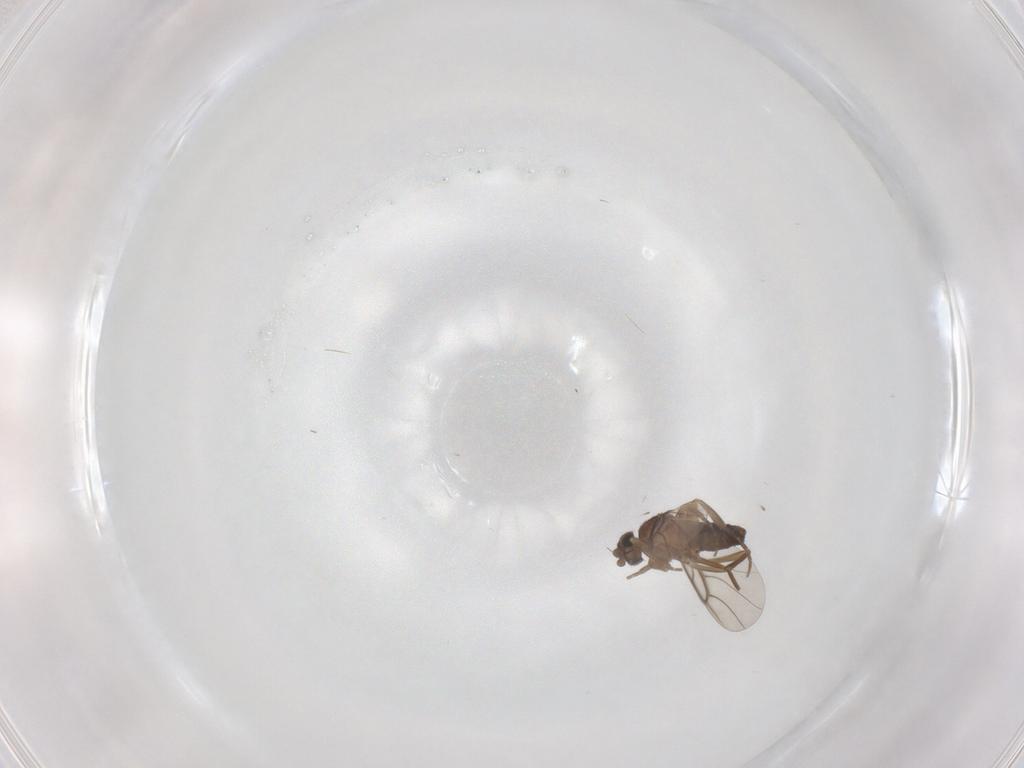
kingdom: Animalia
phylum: Arthropoda
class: Insecta
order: Diptera
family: Phoridae
